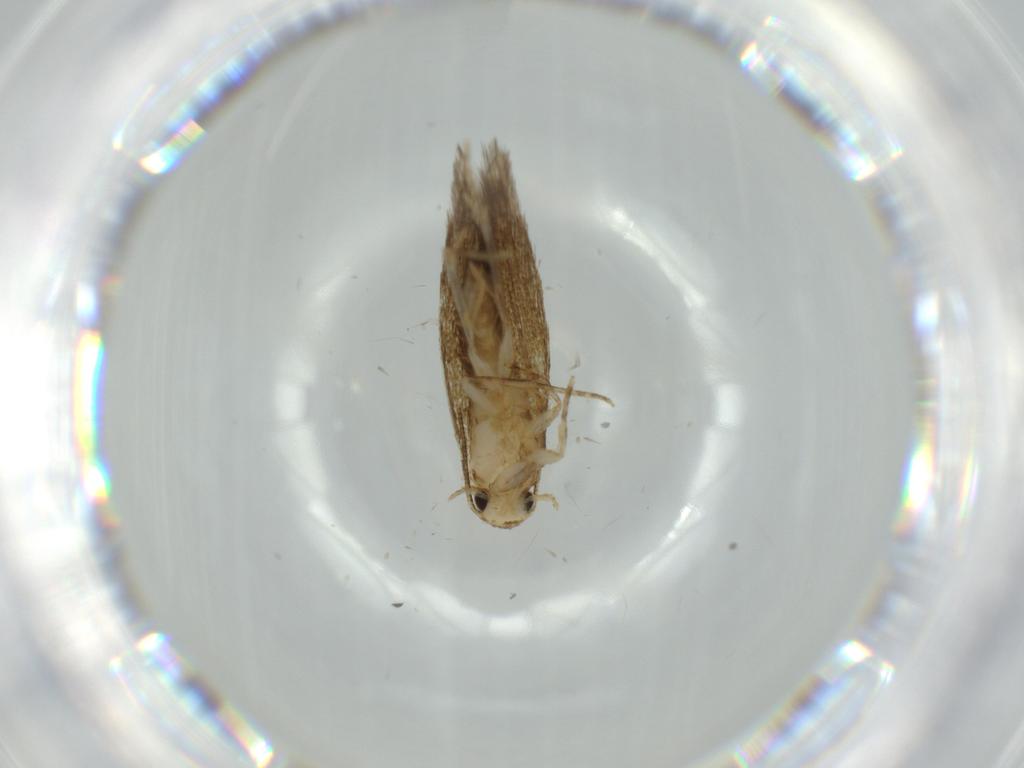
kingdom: Animalia
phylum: Arthropoda
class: Insecta
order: Lepidoptera
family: Tineidae
